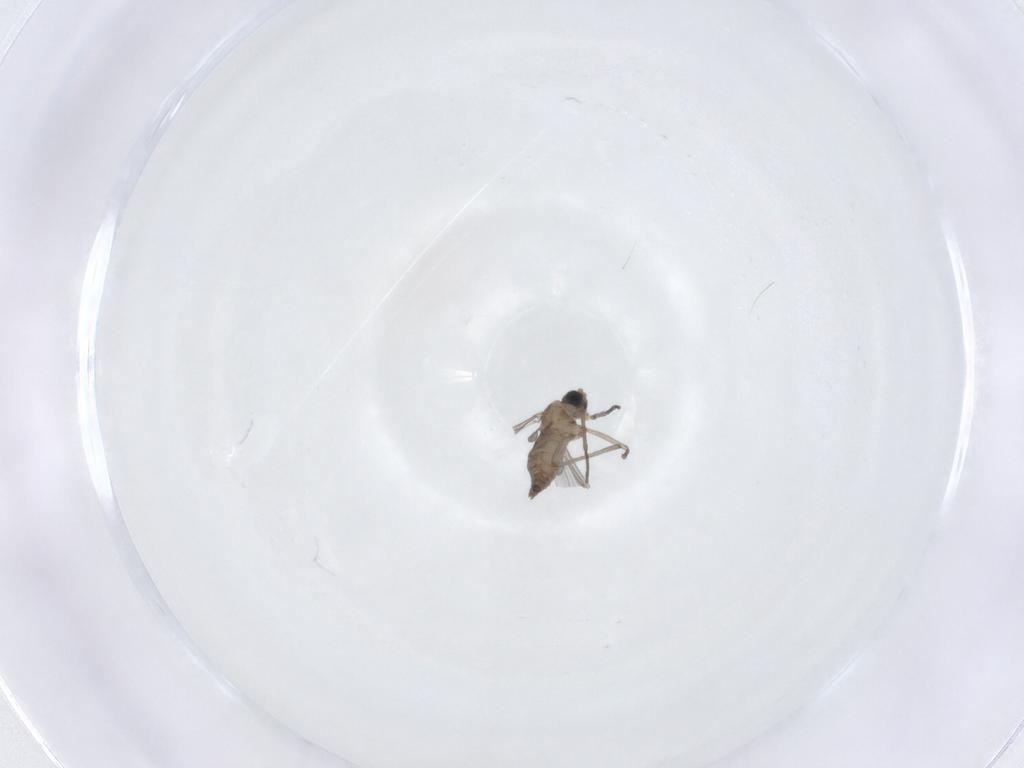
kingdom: Animalia
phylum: Arthropoda
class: Insecta
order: Diptera
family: Sciaridae
